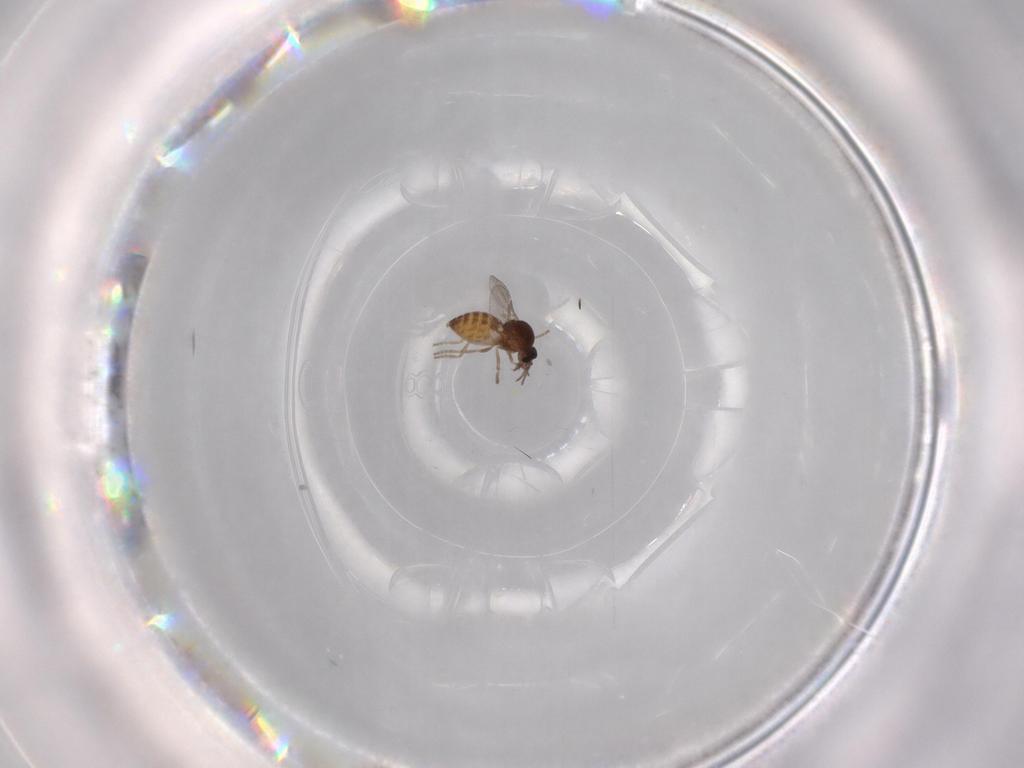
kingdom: Animalia
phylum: Arthropoda
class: Insecta
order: Diptera
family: Ceratopogonidae
